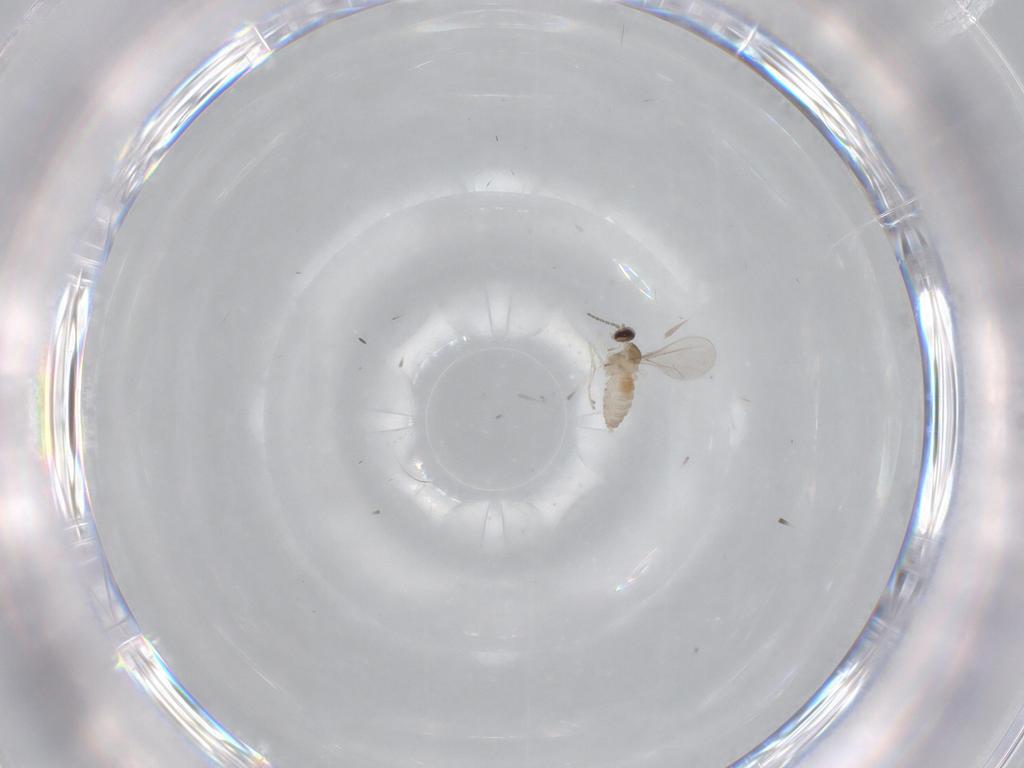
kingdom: Animalia
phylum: Arthropoda
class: Insecta
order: Diptera
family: Cecidomyiidae
